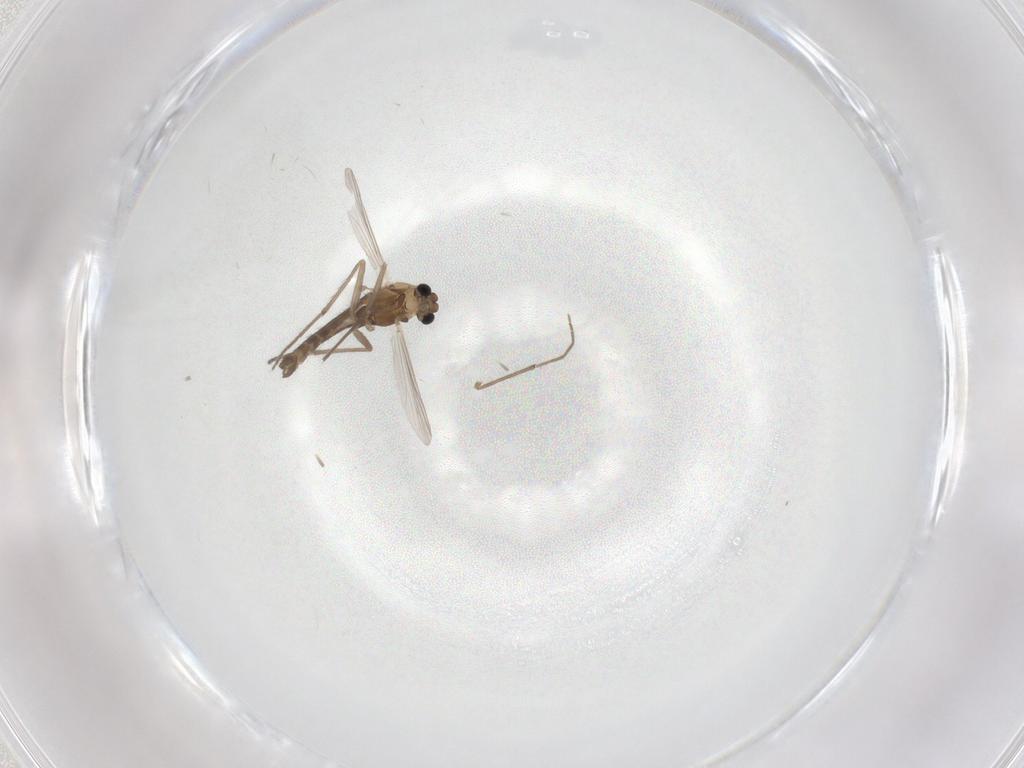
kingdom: Animalia
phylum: Arthropoda
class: Insecta
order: Diptera
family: Chironomidae
